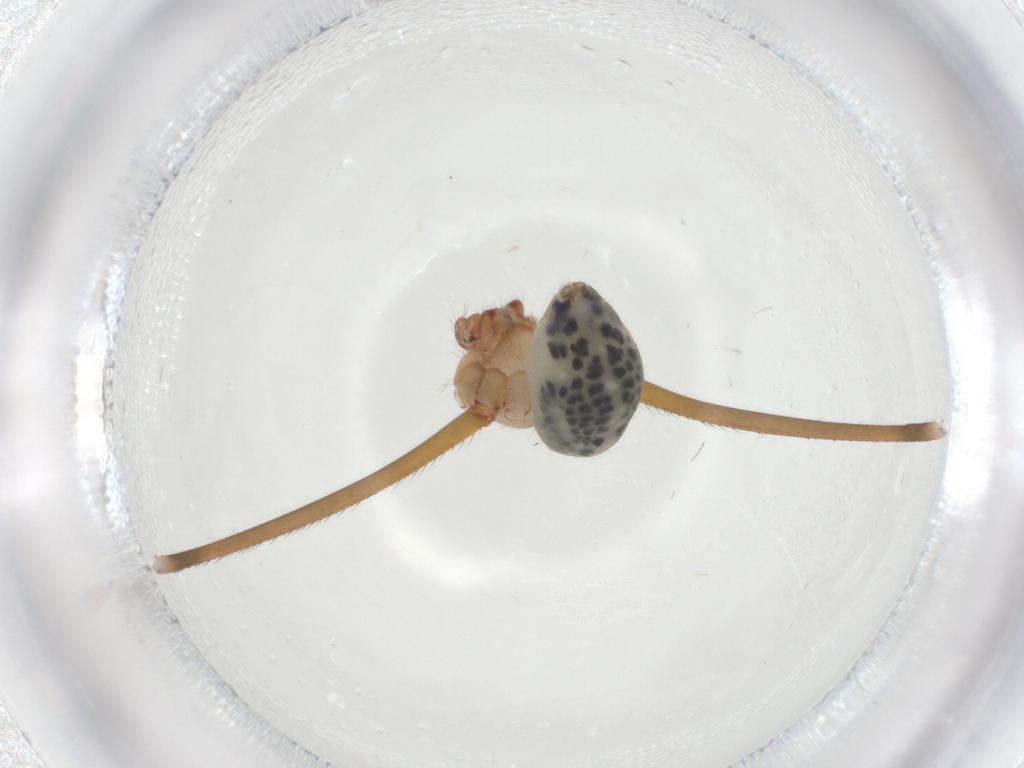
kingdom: Animalia
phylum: Arthropoda
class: Arachnida
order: Araneae
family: Pholcidae
